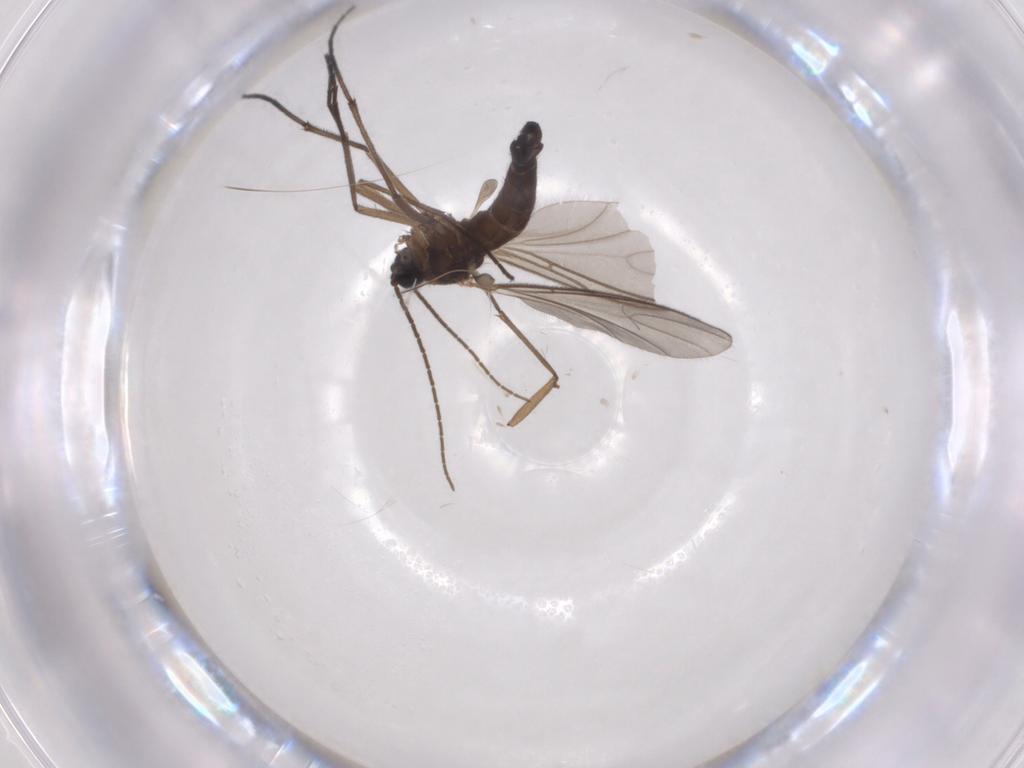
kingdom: Animalia
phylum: Arthropoda
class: Insecta
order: Diptera
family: Sciaridae
